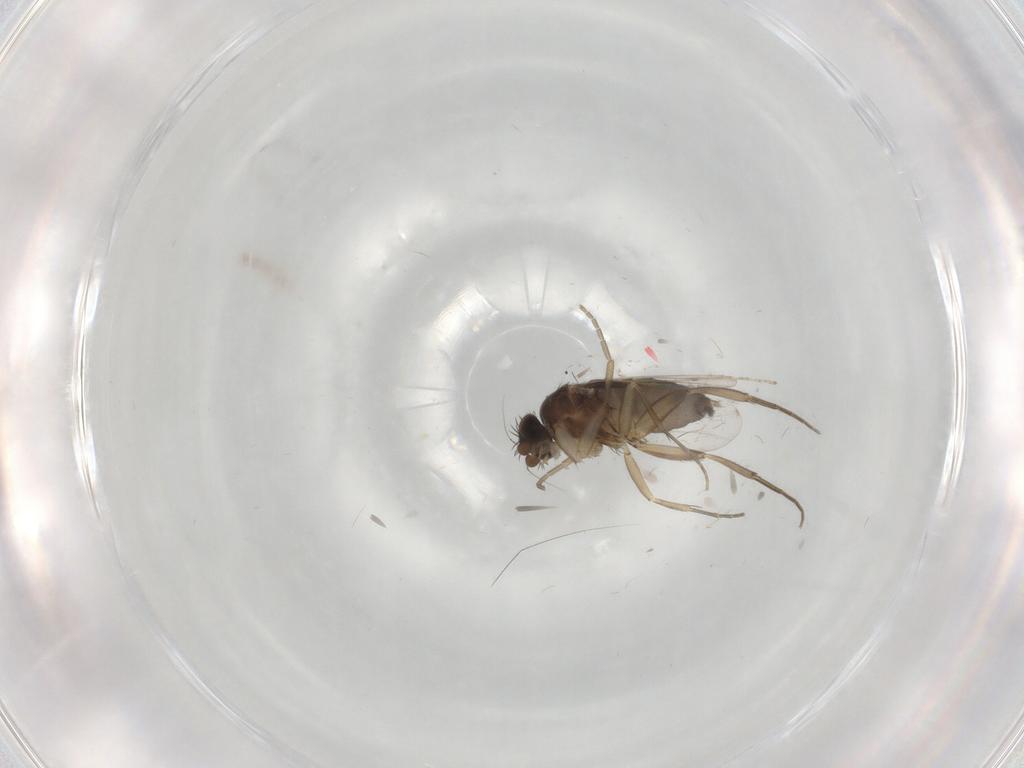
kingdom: Animalia
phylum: Arthropoda
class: Insecta
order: Diptera
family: Cecidomyiidae
